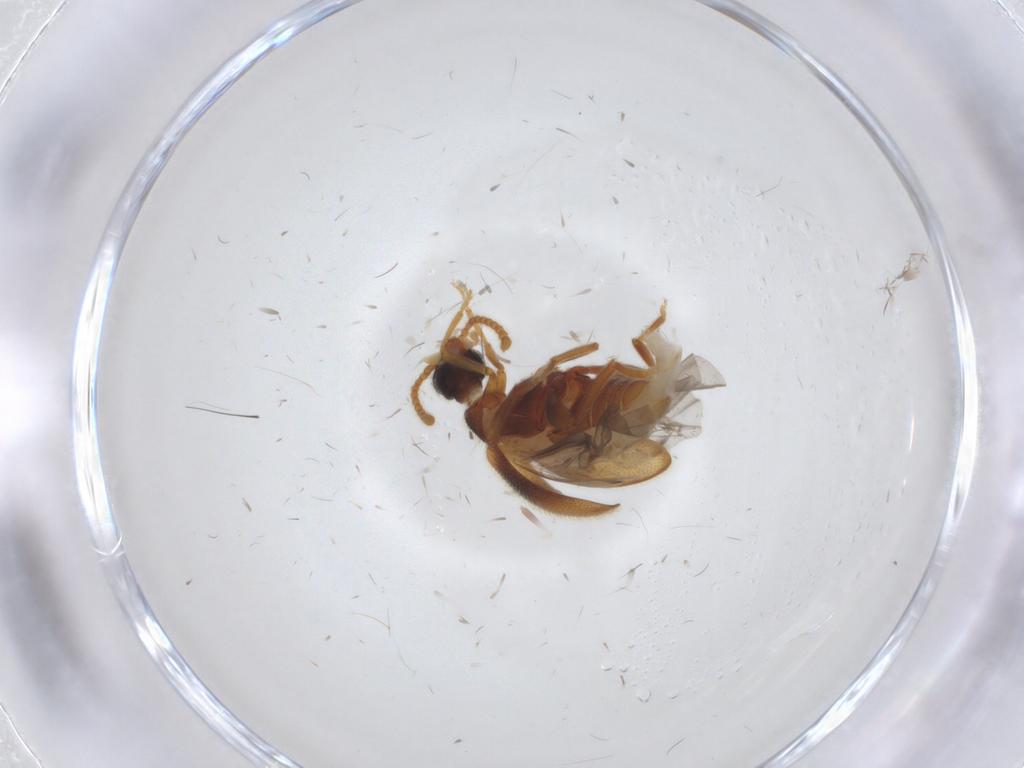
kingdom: Animalia
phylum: Arthropoda
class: Insecta
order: Coleoptera
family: Aderidae
